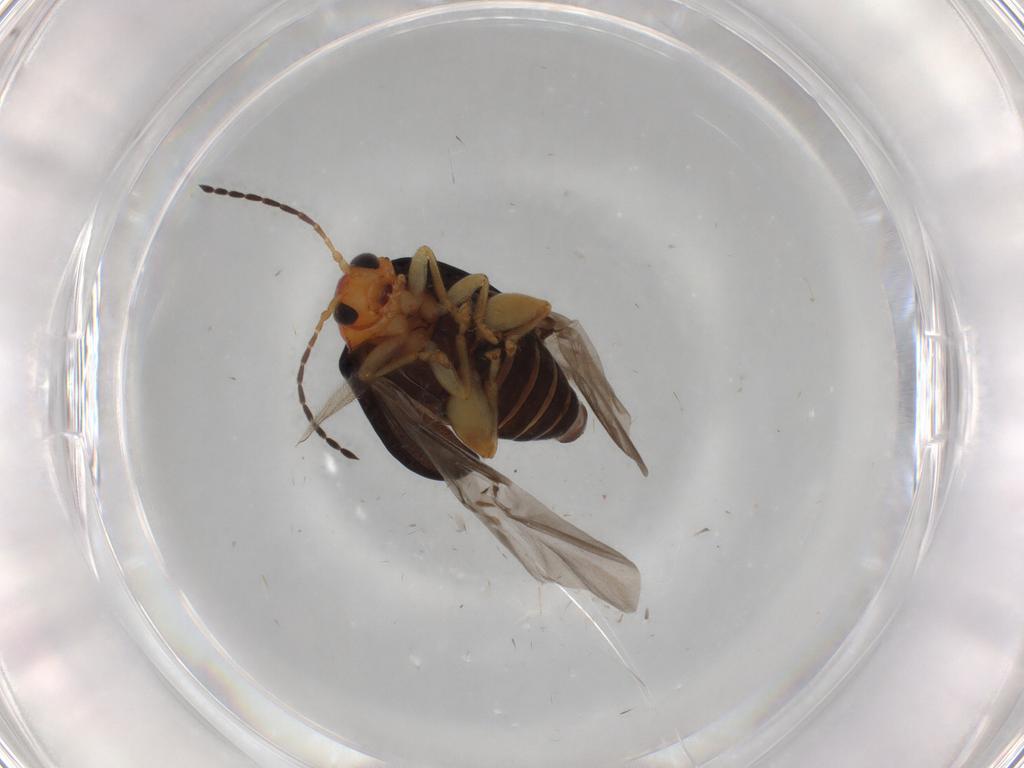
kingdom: Animalia
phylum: Arthropoda
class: Insecta
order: Coleoptera
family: Chrysomelidae
